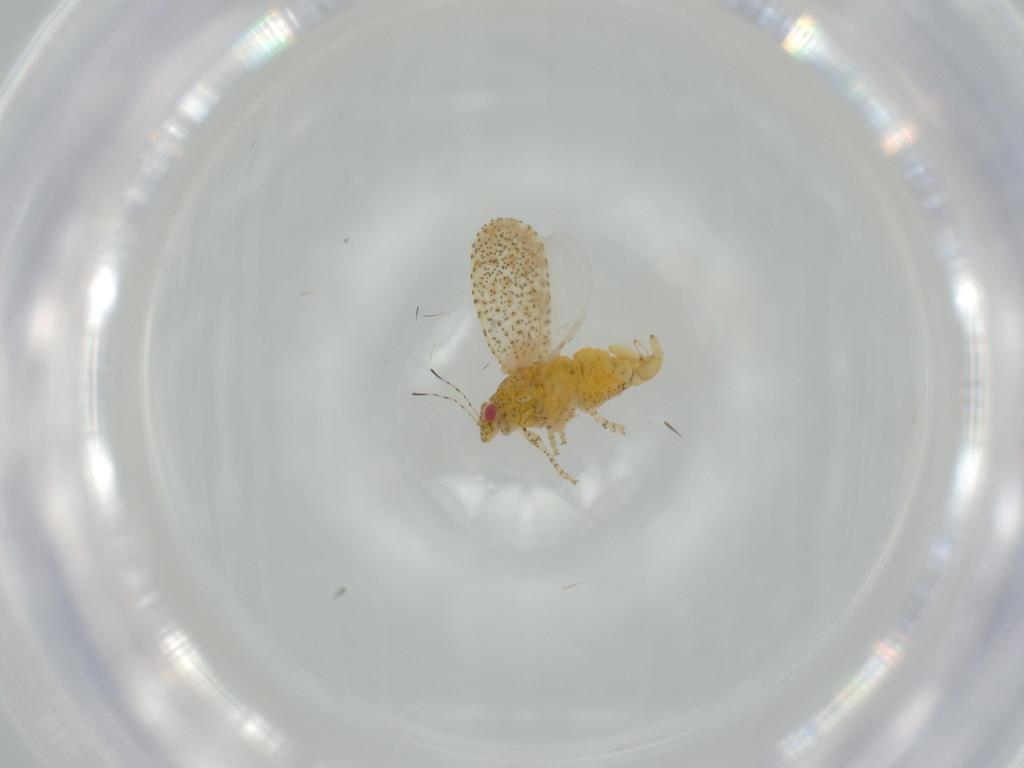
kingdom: Animalia
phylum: Arthropoda
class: Insecta
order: Hemiptera
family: Psyllidae
